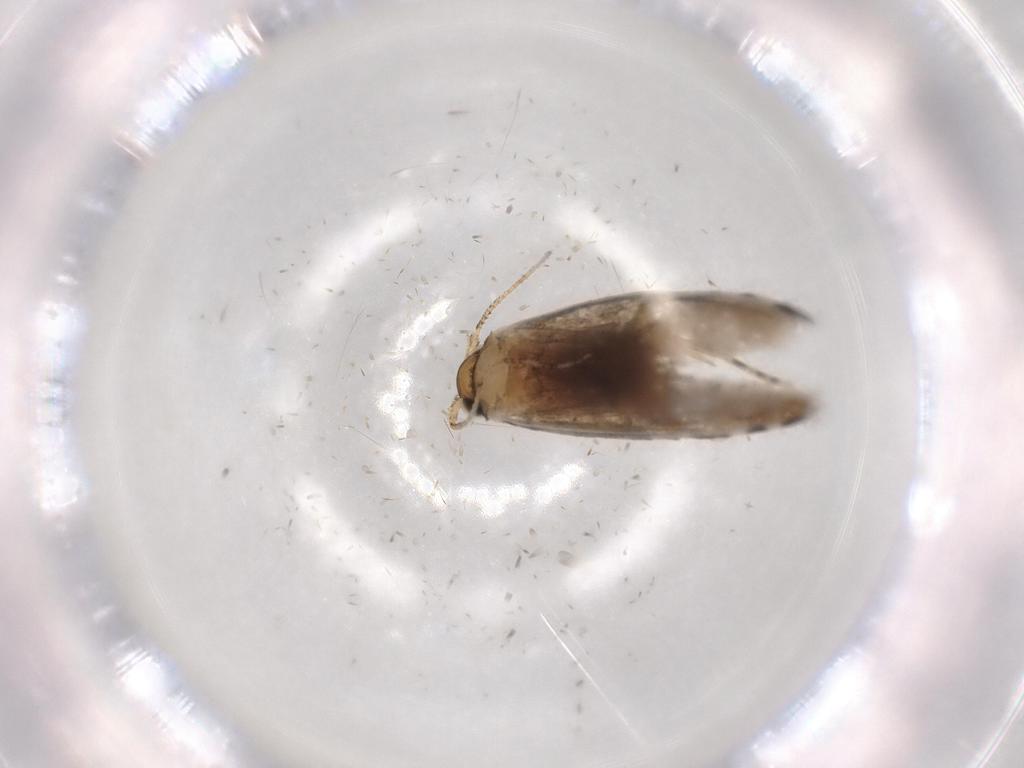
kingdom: Animalia
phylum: Arthropoda
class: Insecta
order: Lepidoptera
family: Tineidae
